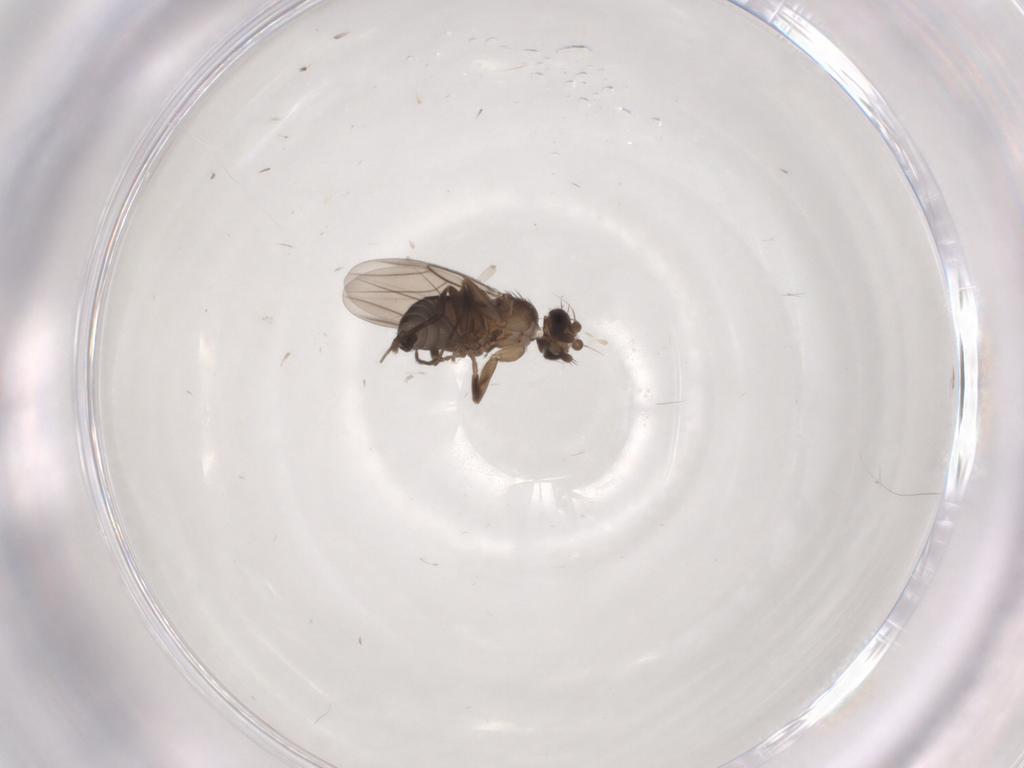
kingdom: Animalia
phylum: Arthropoda
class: Insecta
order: Diptera
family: Phoridae
